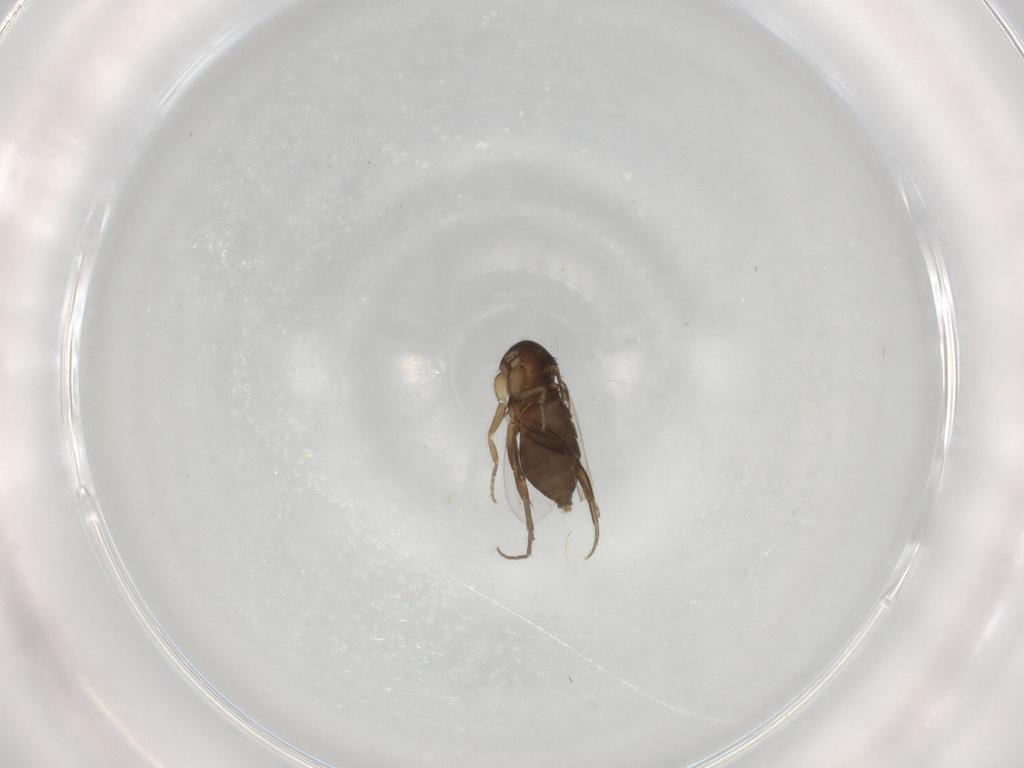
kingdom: Animalia
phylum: Arthropoda
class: Insecta
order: Diptera
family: Phoridae
